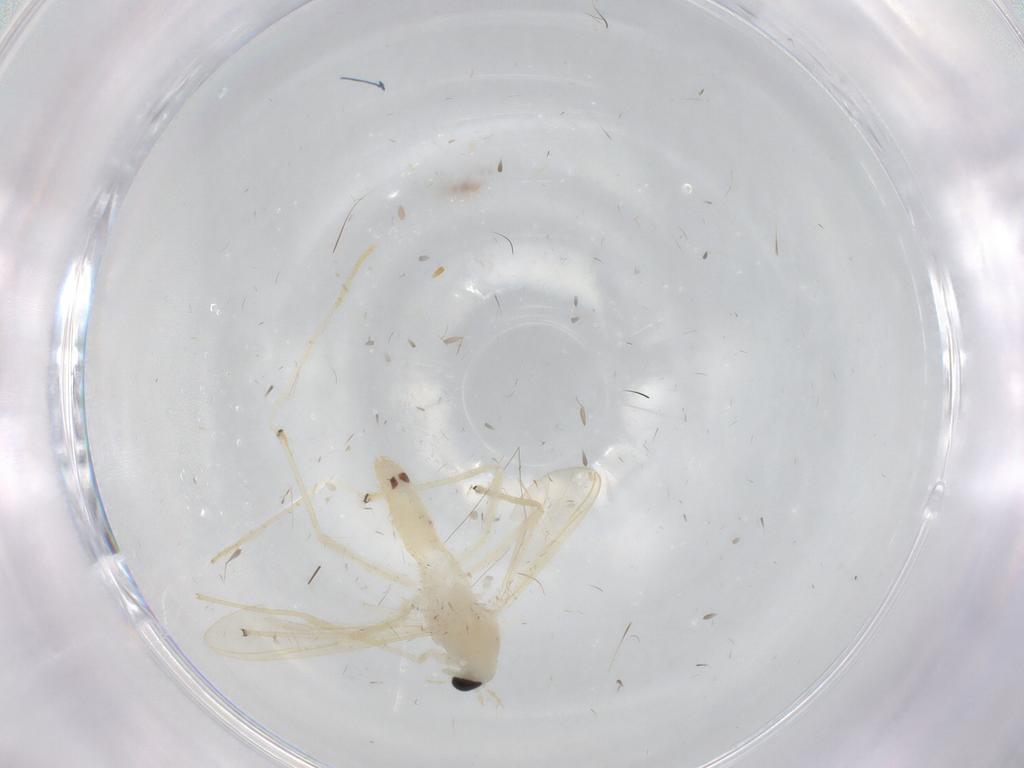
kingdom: Animalia
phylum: Arthropoda
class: Insecta
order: Diptera
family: Chironomidae
